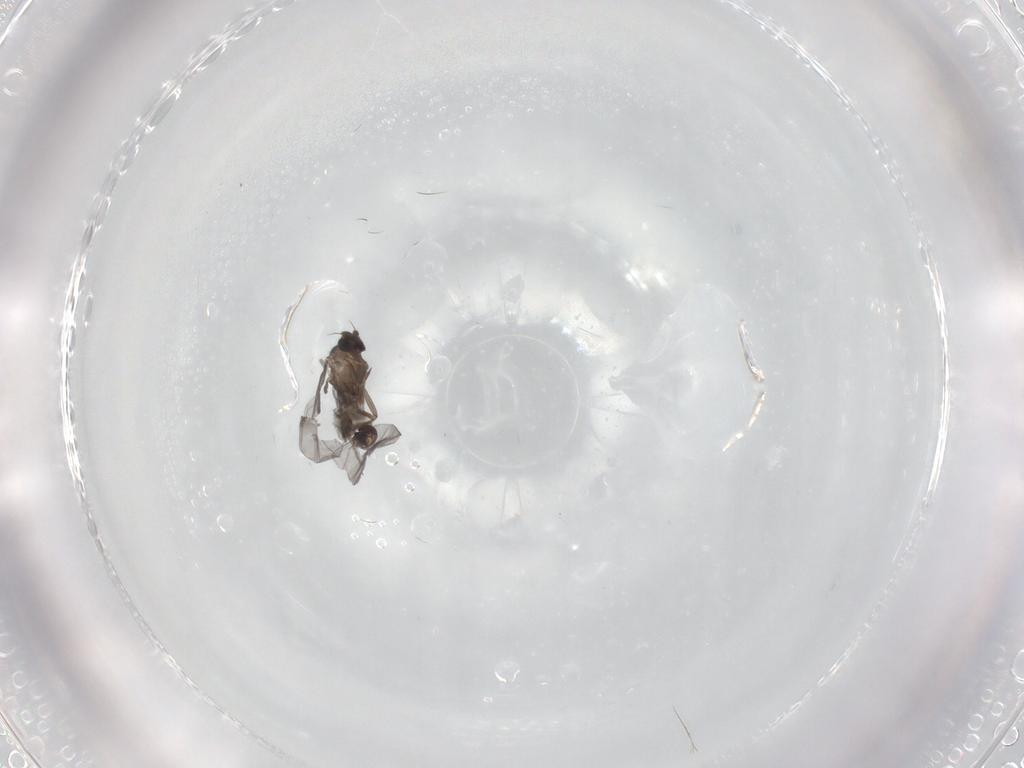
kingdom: Animalia
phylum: Arthropoda
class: Insecta
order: Diptera
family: Phoridae
